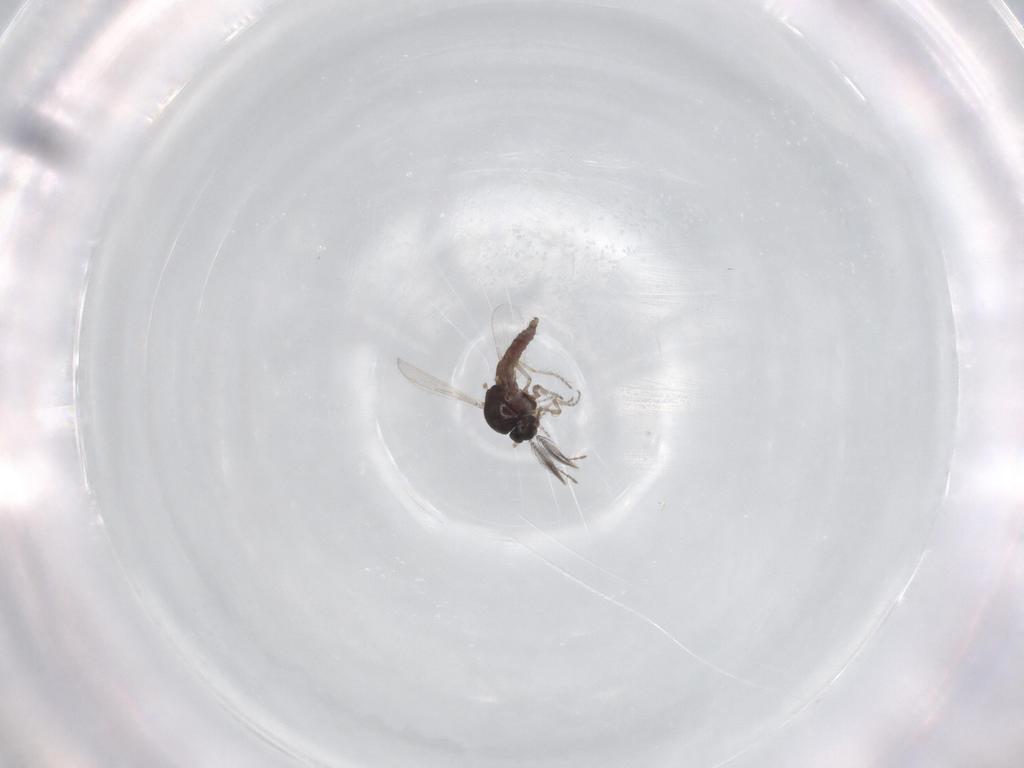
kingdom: Animalia
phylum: Arthropoda
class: Insecta
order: Diptera
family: Ceratopogonidae
